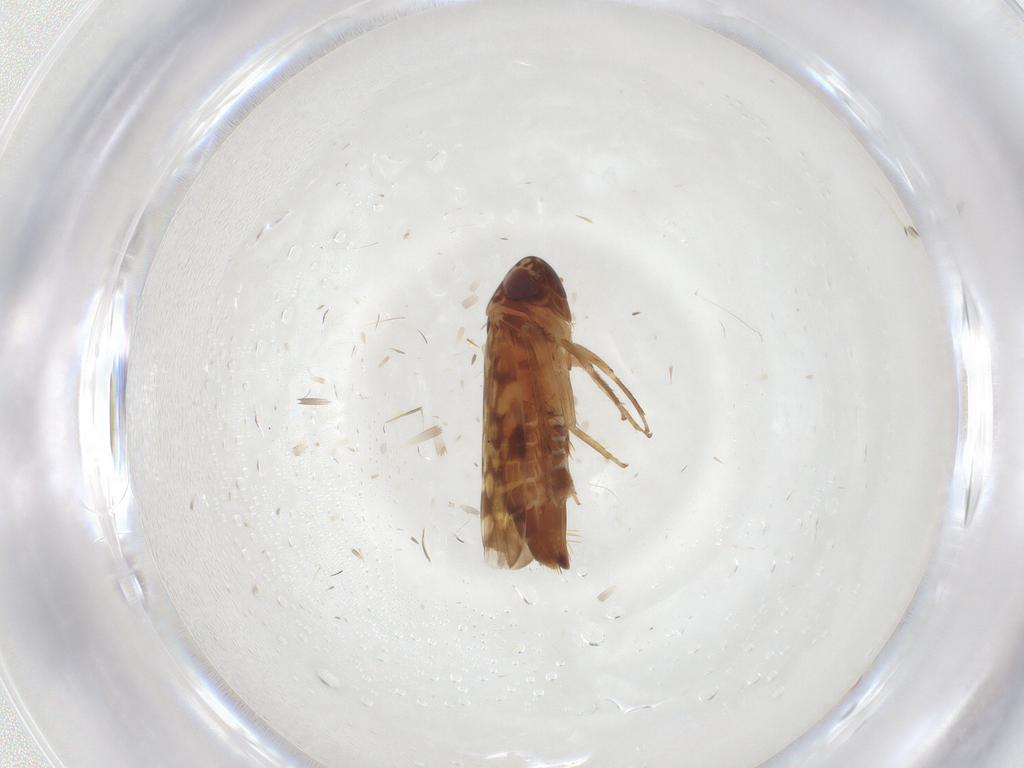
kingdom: Animalia
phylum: Arthropoda
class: Insecta
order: Hemiptera
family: Cicadellidae
